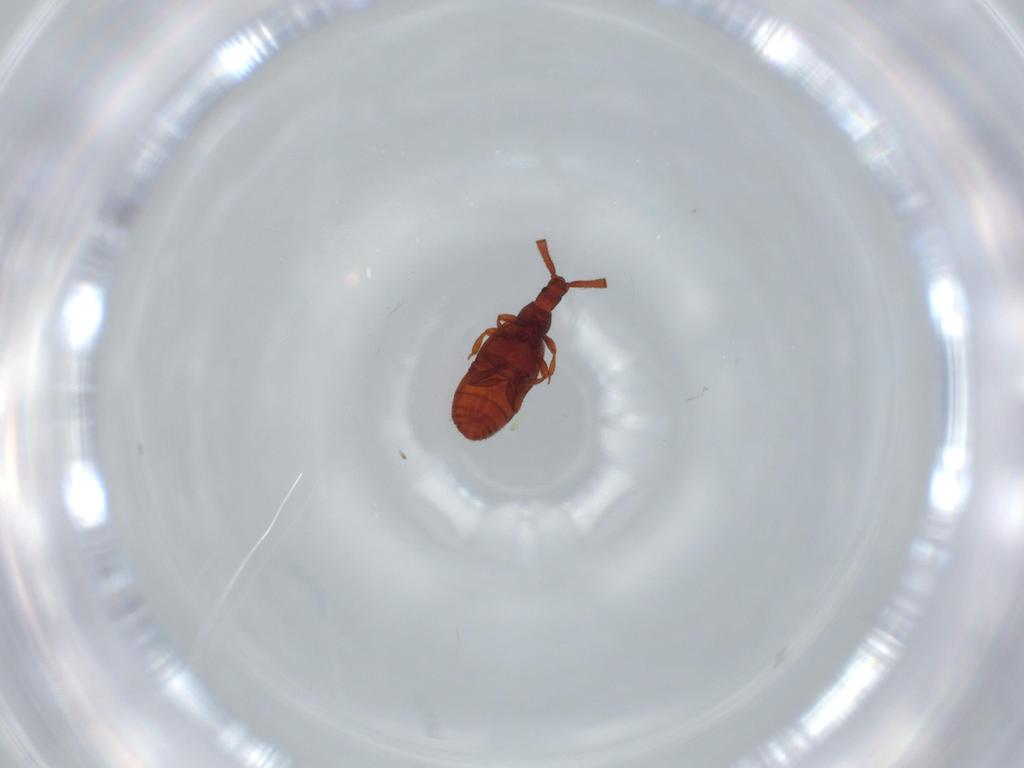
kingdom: Animalia
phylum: Arthropoda
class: Insecta
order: Coleoptera
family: Staphylinidae
